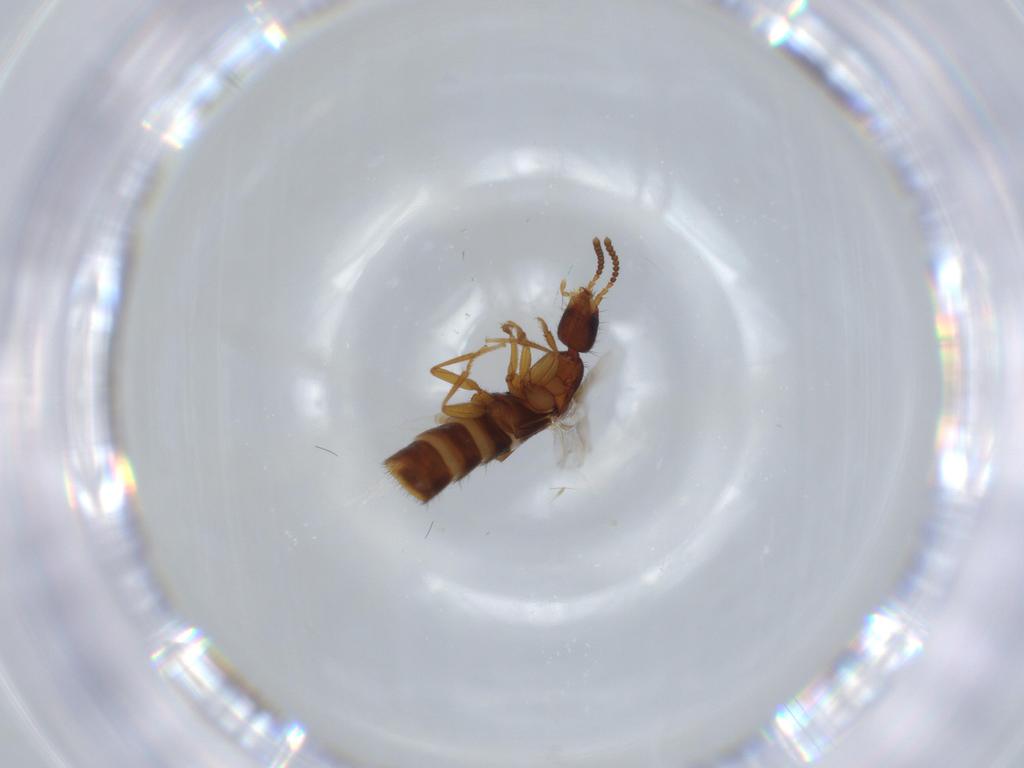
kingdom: Animalia
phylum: Arthropoda
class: Insecta
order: Coleoptera
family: Staphylinidae
